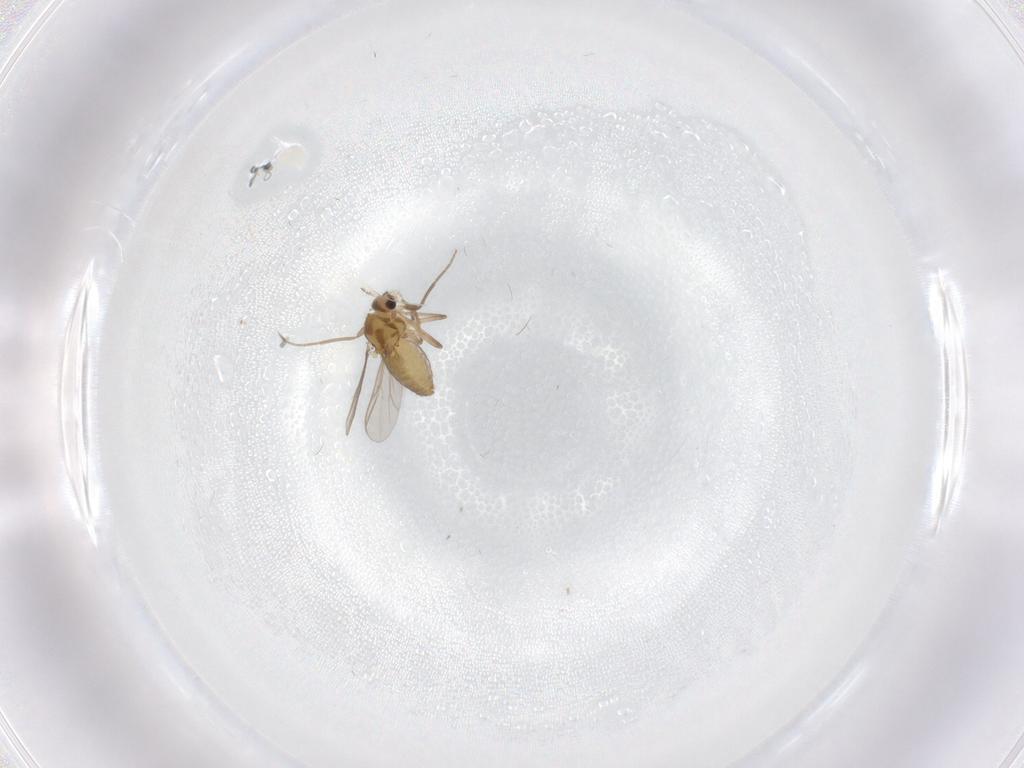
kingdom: Animalia
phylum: Arthropoda
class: Insecta
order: Diptera
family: Chironomidae
